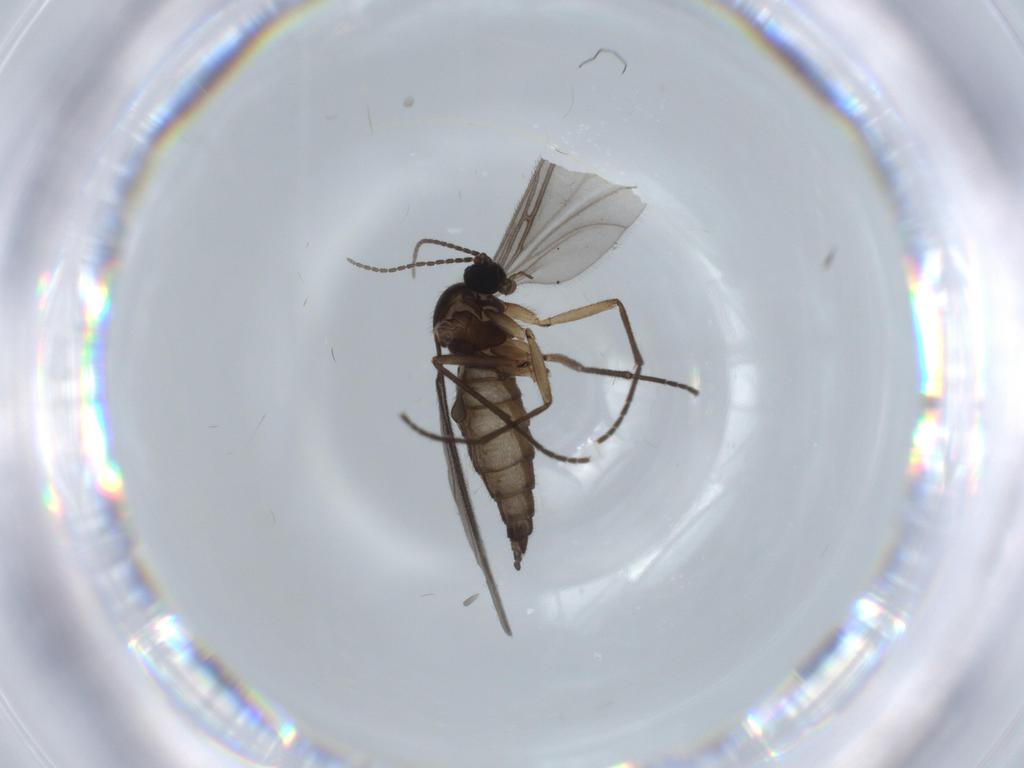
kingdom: Animalia
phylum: Arthropoda
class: Insecta
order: Diptera
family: Sciaridae
